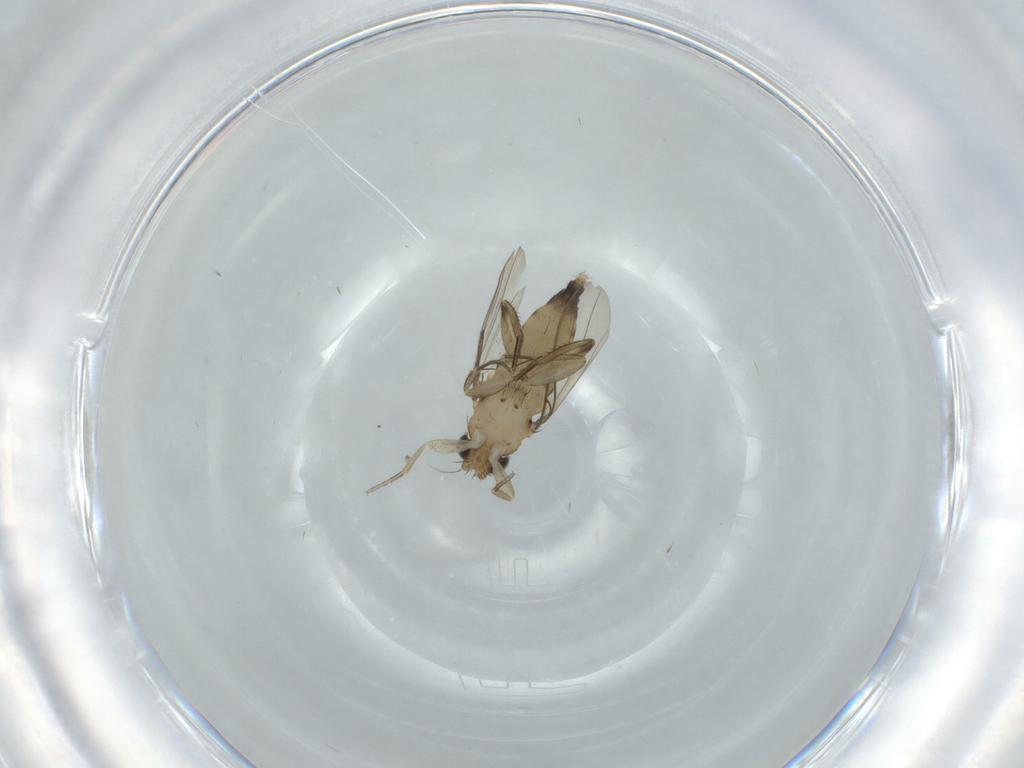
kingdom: Animalia
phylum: Arthropoda
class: Insecta
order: Diptera
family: Phoridae
